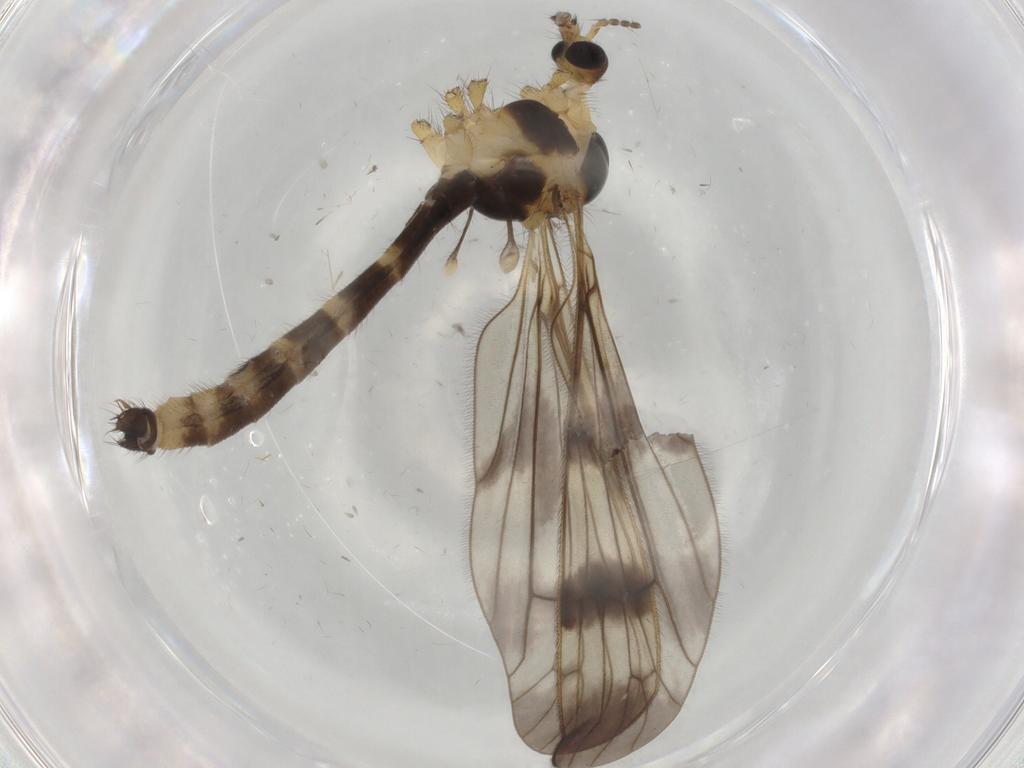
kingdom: Animalia
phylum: Arthropoda
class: Insecta
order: Diptera
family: Limoniidae
